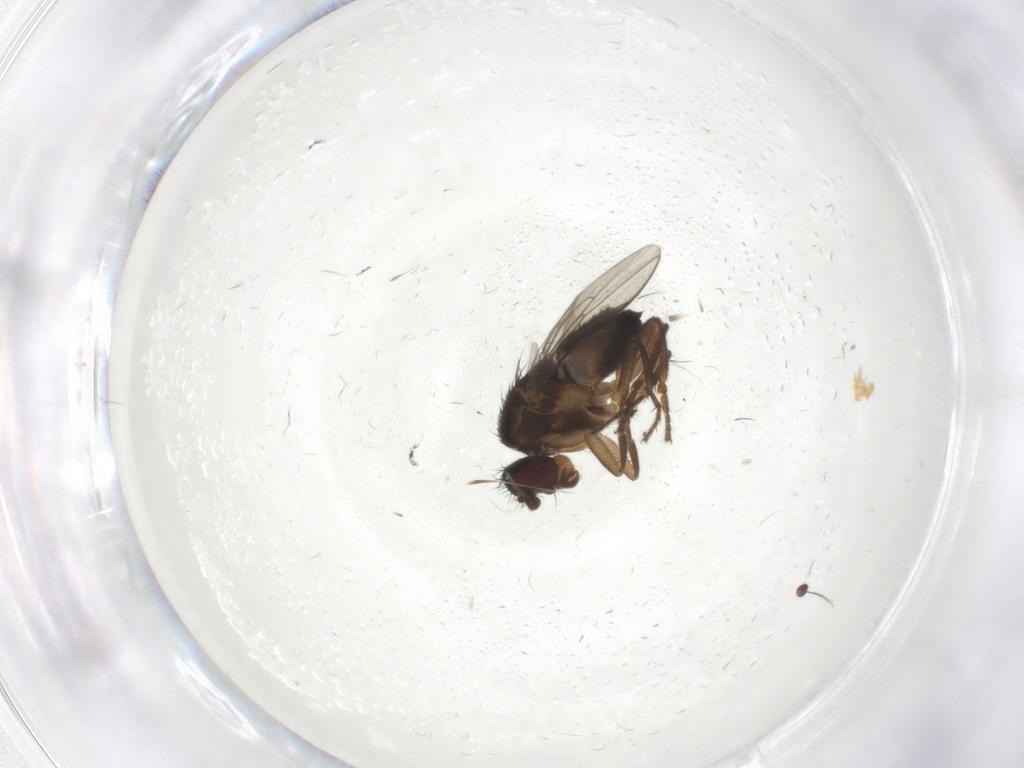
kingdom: Animalia
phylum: Arthropoda
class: Insecta
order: Diptera
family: Sphaeroceridae
